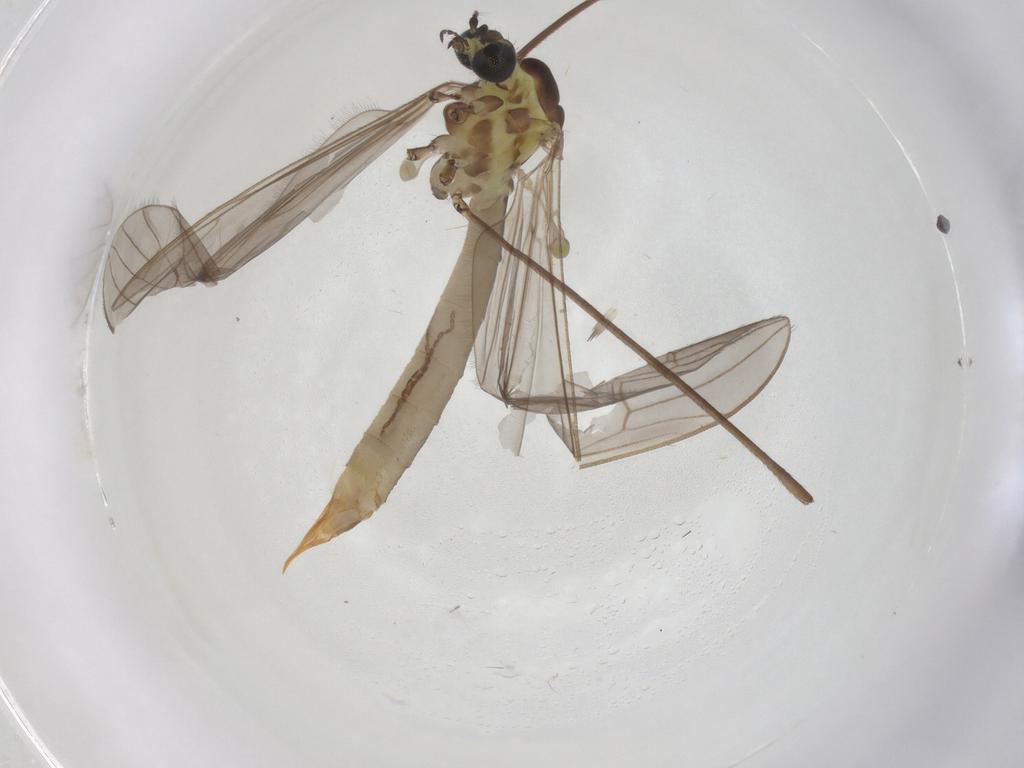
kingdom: Animalia
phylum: Arthropoda
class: Insecta
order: Diptera
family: Limoniidae
